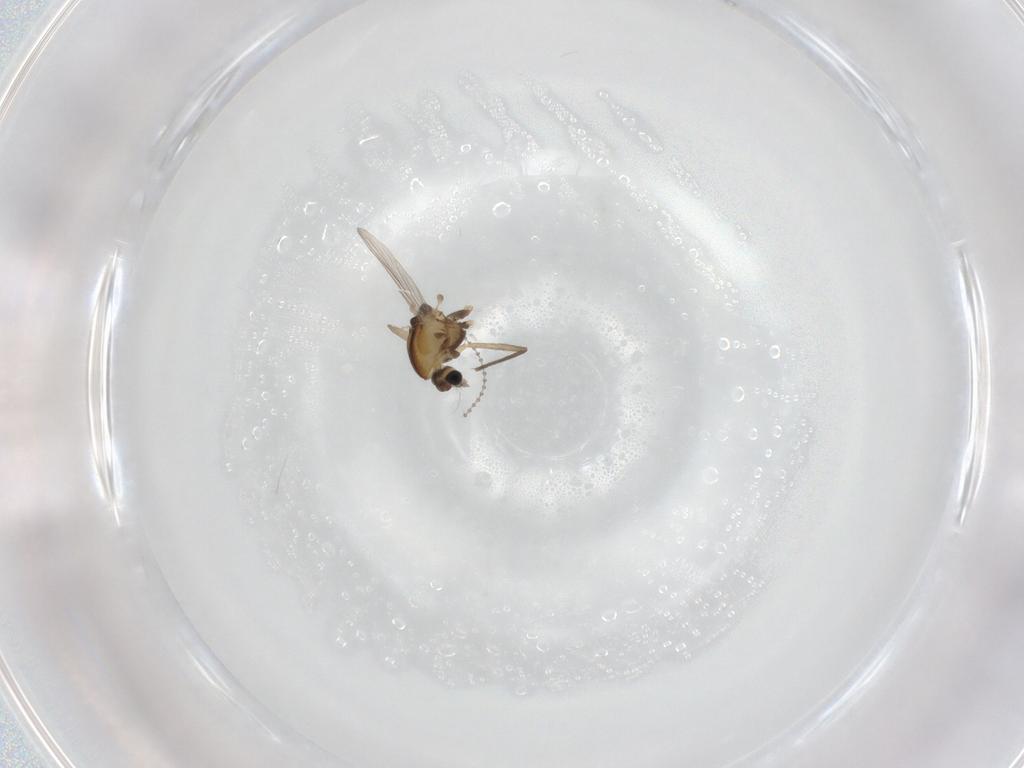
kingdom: Animalia
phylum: Arthropoda
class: Insecta
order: Diptera
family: Chironomidae
